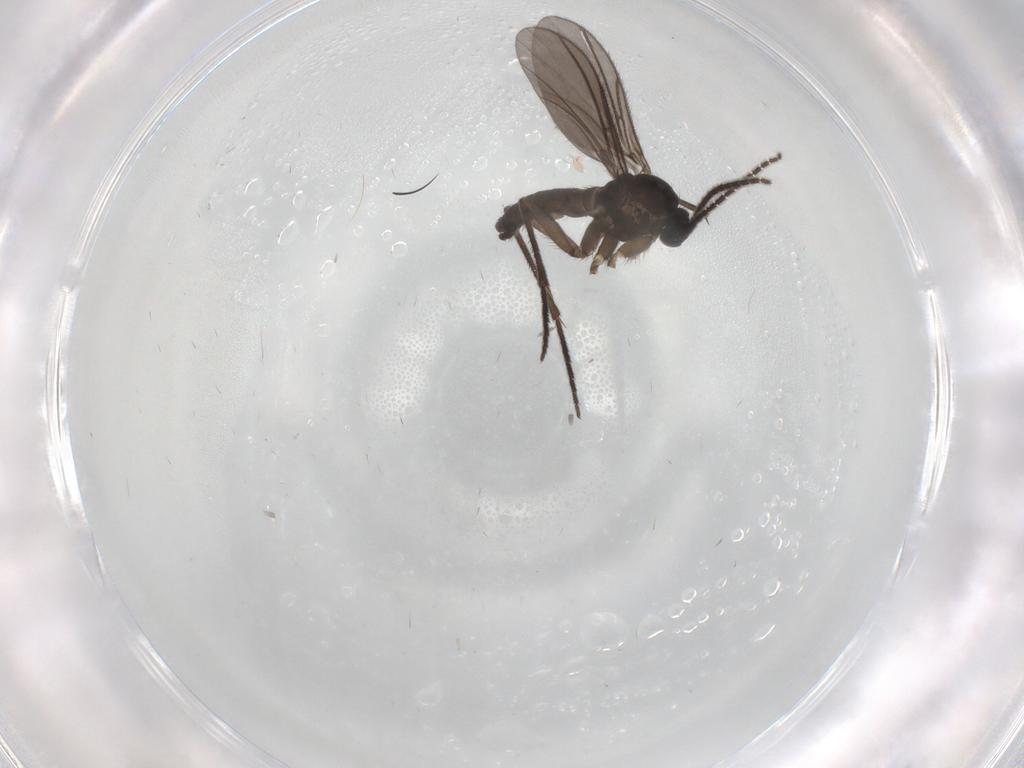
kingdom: Animalia
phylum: Arthropoda
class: Insecta
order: Diptera
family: Sciaridae
